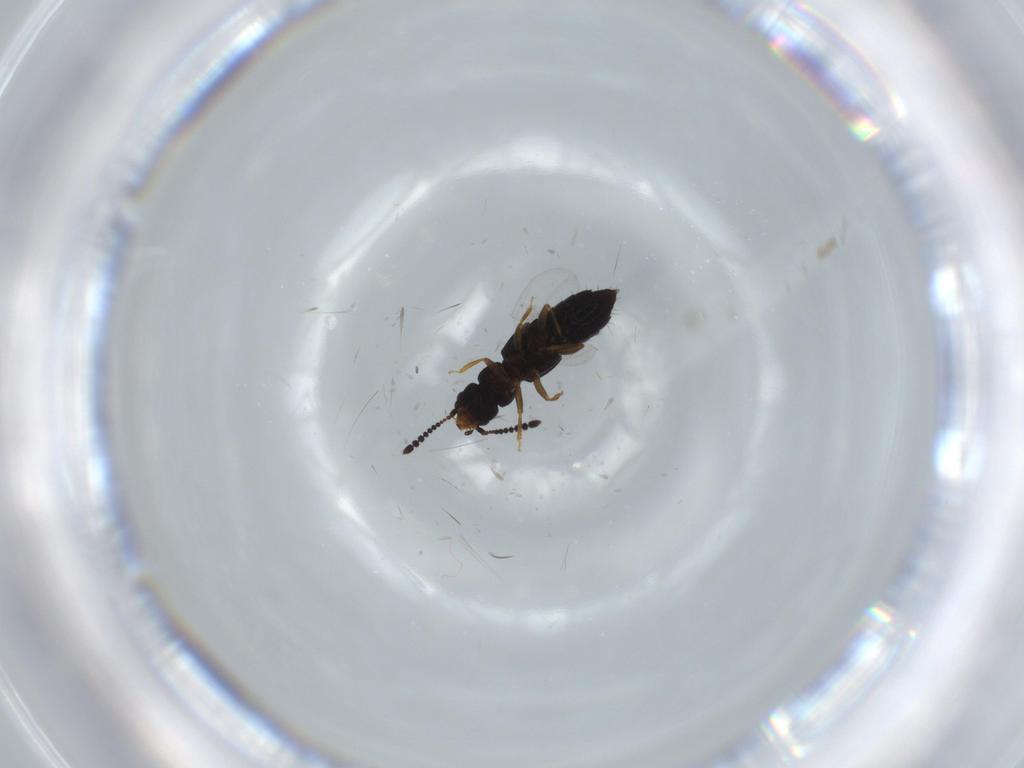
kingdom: Animalia
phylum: Arthropoda
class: Insecta
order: Coleoptera
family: Staphylinidae
